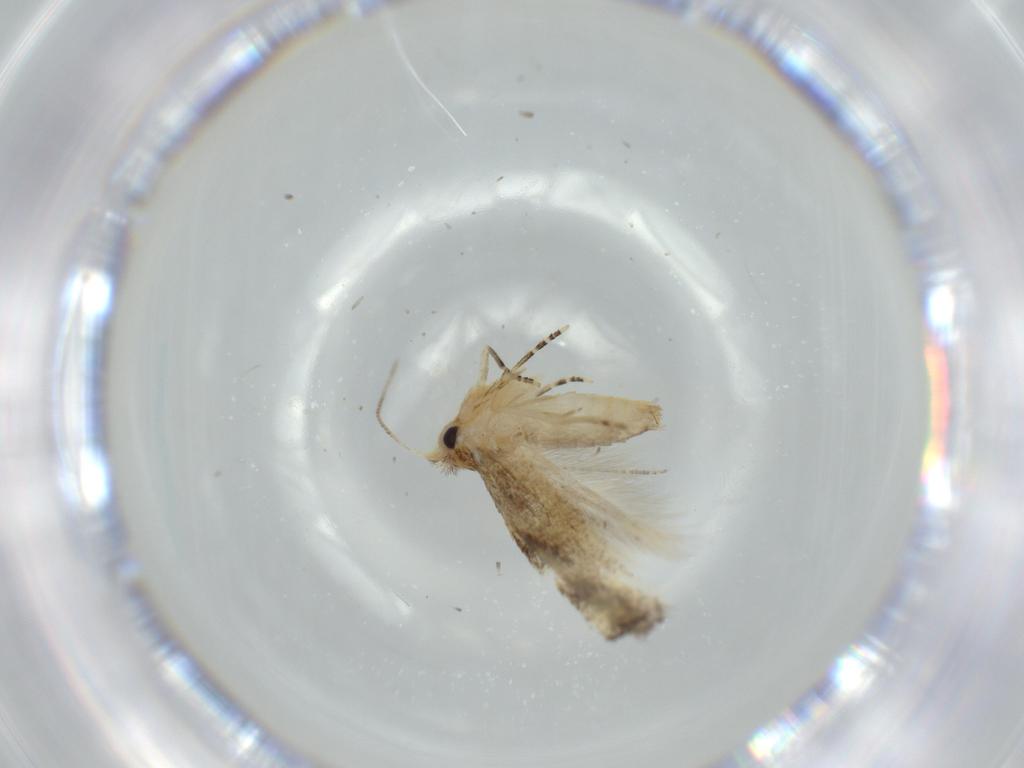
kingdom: Animalia
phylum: Arthropoda
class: Insecta
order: Lepidoptera
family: Bucculatricidae
